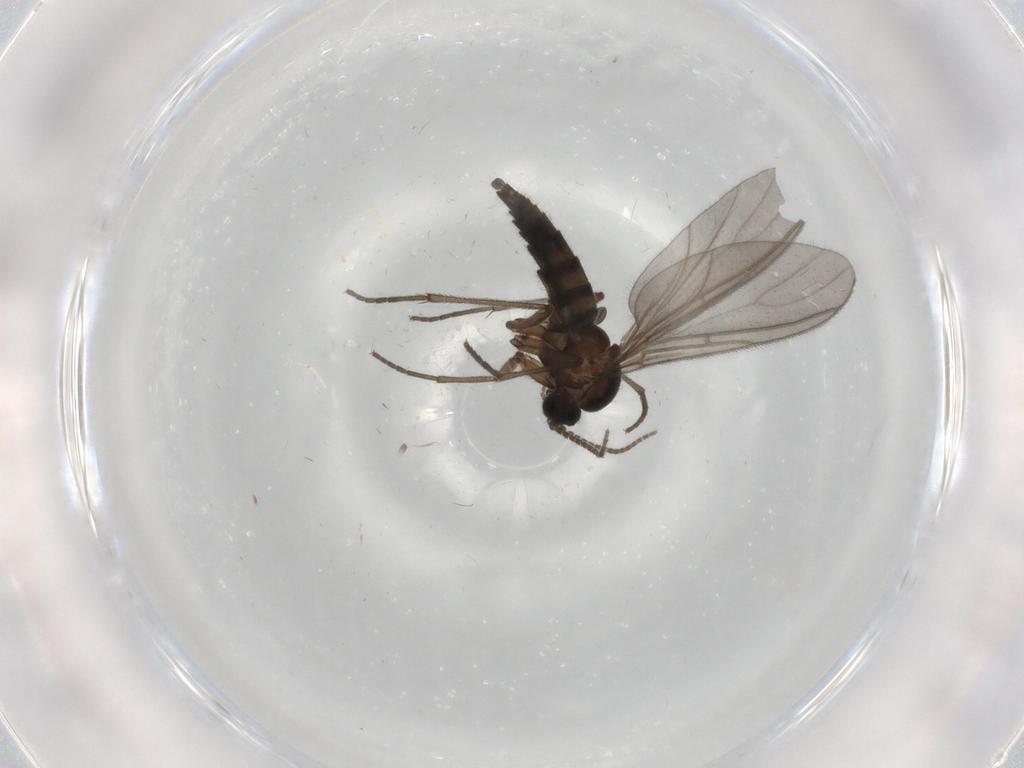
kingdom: Animalia
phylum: Arthropoda
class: Insecta
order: Diptera
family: Sciaridae
